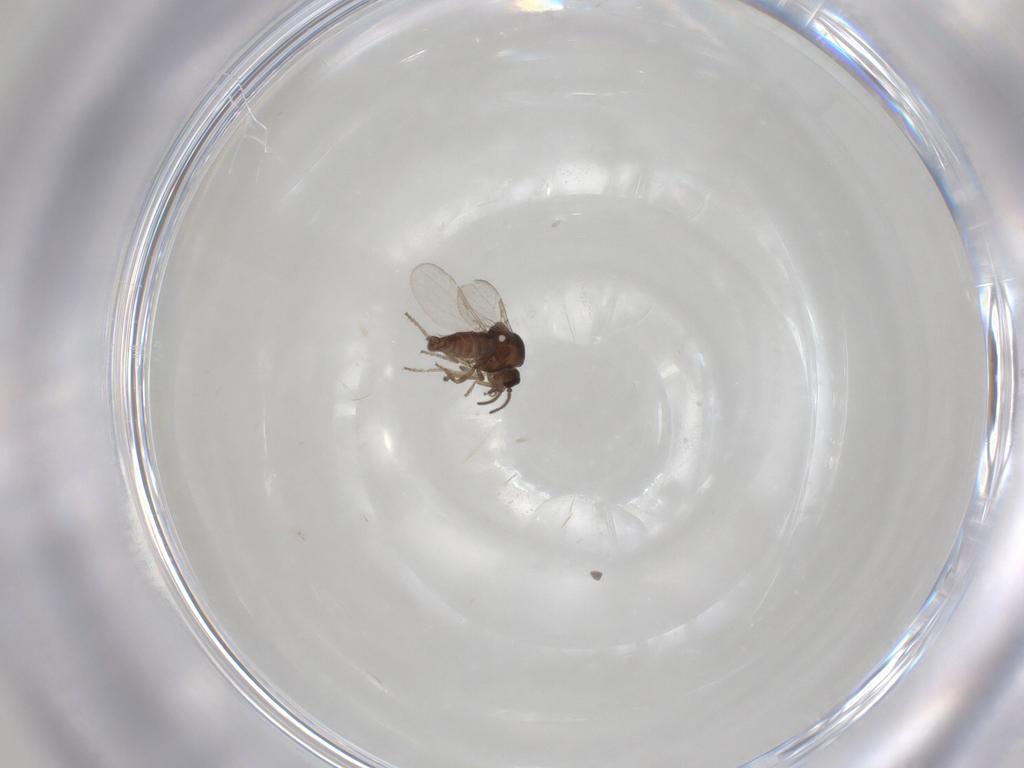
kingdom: Animalia
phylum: Arthropoda
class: Insecta
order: Diptera
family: Ceratopogonidae
